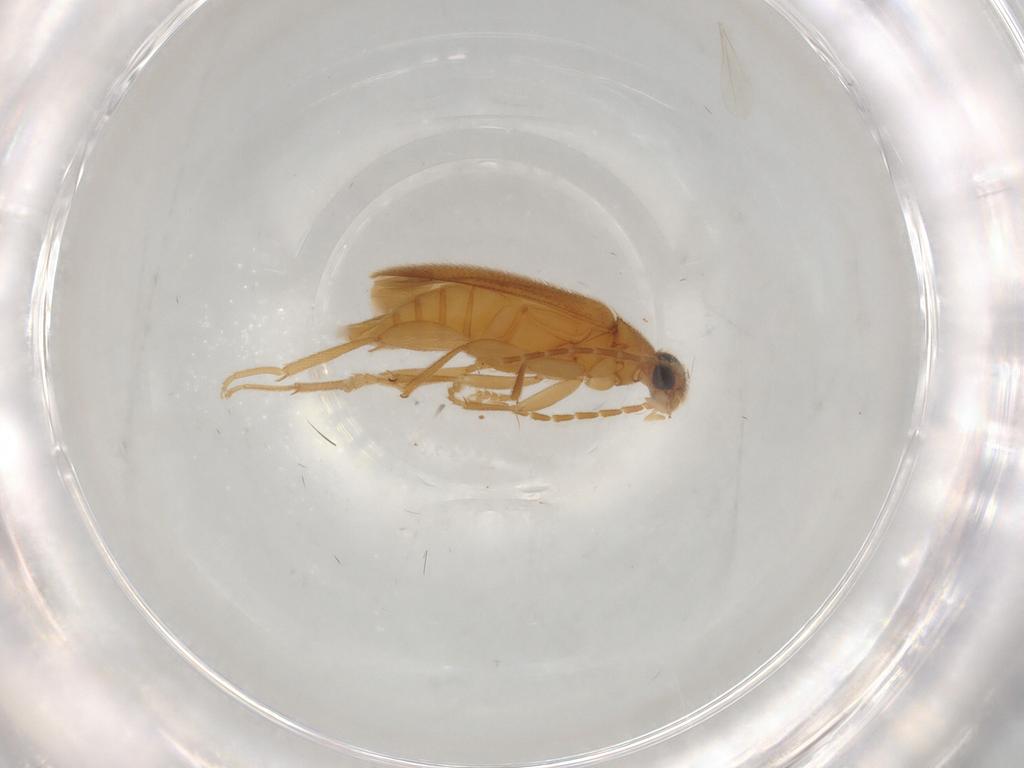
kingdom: Animalia
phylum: Arthropoda
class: Insecta
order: Coleoptera
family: Scraptiidae
